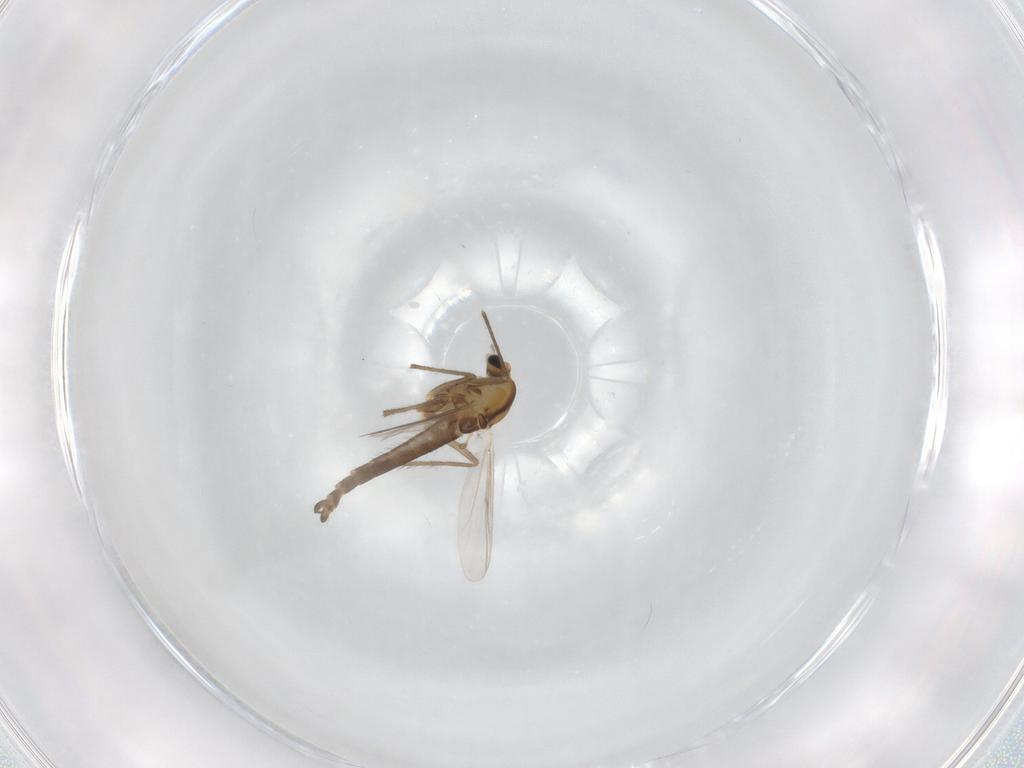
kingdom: Animalia
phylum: Arthropoda
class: Insecta
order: Diptera
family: Chironomidae
